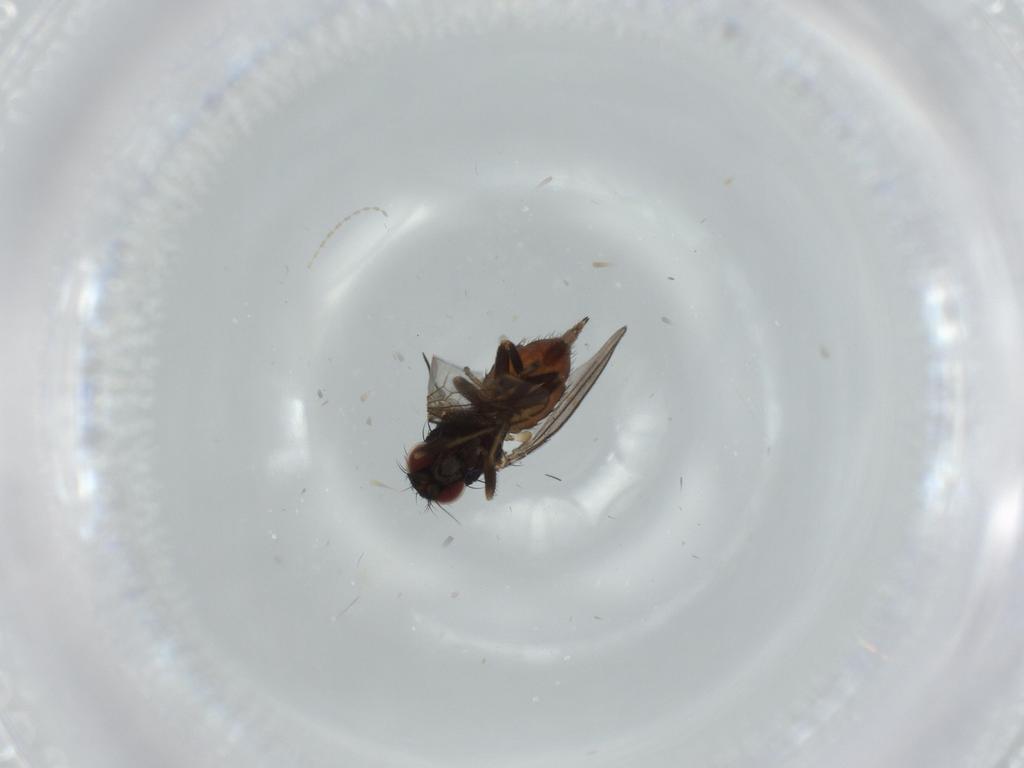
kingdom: Animalia
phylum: Arthropoda
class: Insecta
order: Diptera
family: Milichiidae
